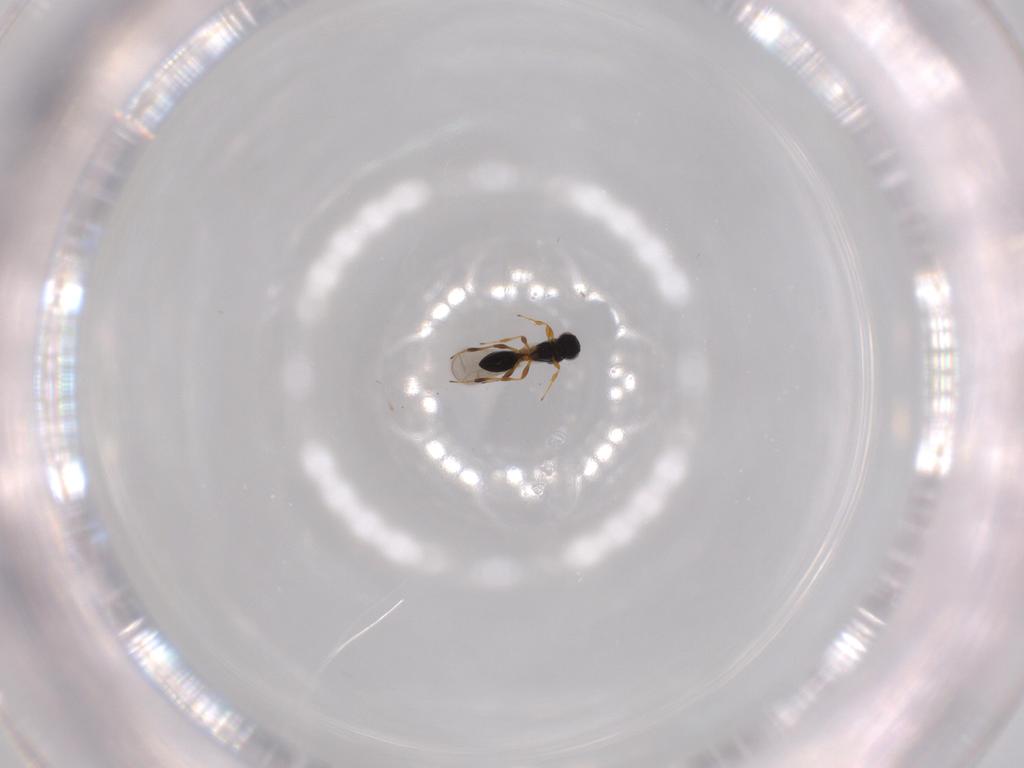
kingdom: Animalia
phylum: Arthropoda
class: Insecta
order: Hymenoptera
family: Platygastridae
